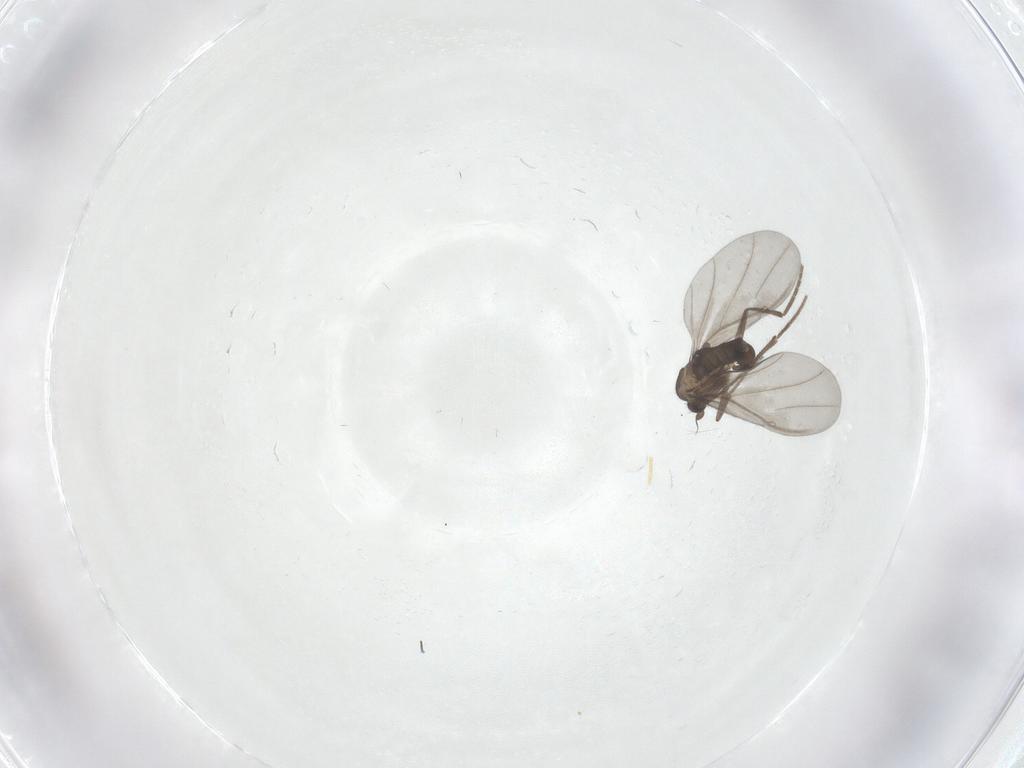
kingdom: Animalia
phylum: Arthropoda
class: Insecta
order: Diptera
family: Phoridae
